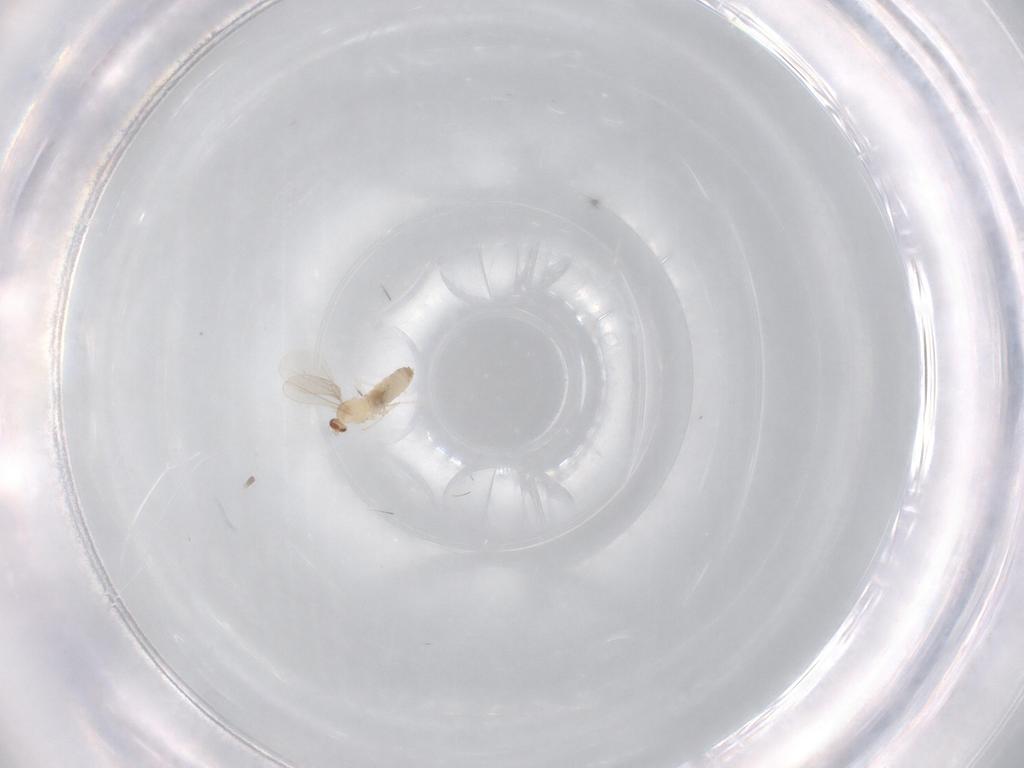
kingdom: Animalia
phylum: Arthropoda
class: Insecta
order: Diptera
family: Cecidomyiidae
